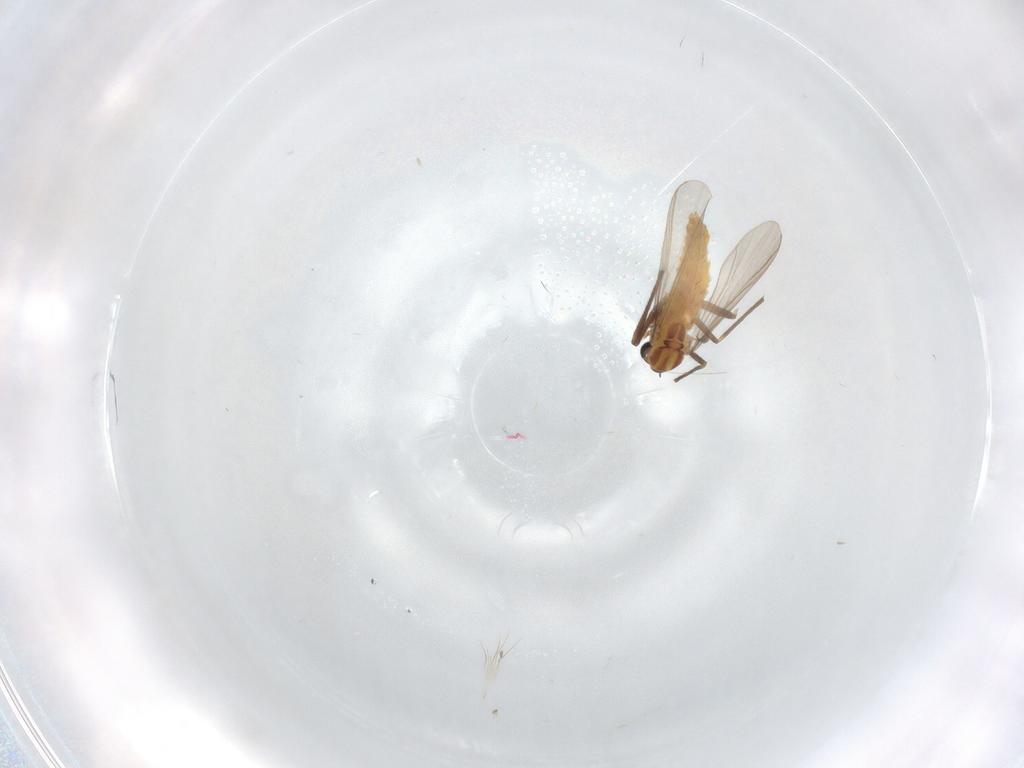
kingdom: Animalia
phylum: Arthropoda
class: Insecta
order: Diptera
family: Chironomidae
